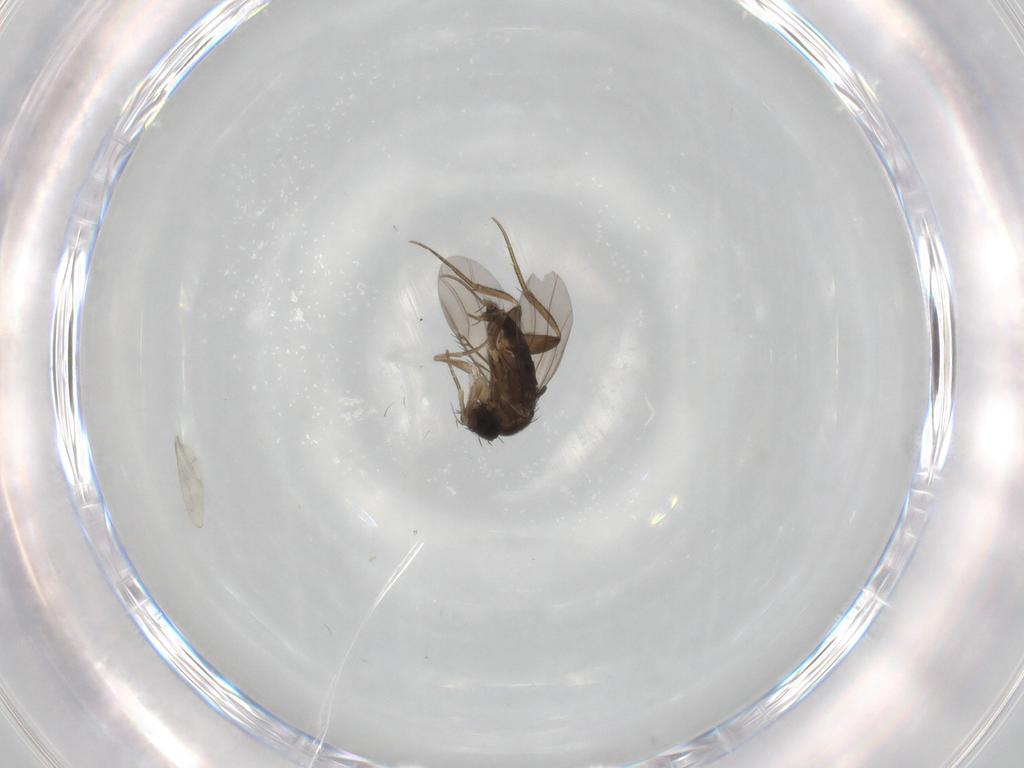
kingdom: Animalia
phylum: Arthropoda
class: Insecta
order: Diptera
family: Phoridae
